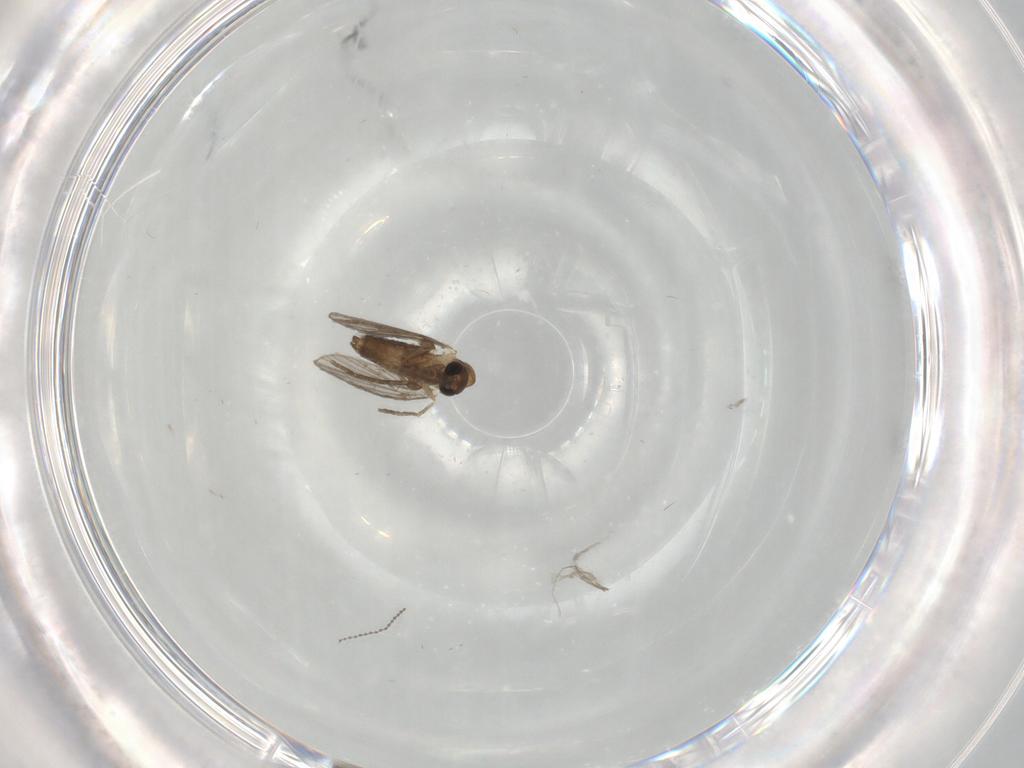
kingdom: Animalia
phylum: Arthropoda
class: Insecta
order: Diptera
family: Cecidomyiidae
